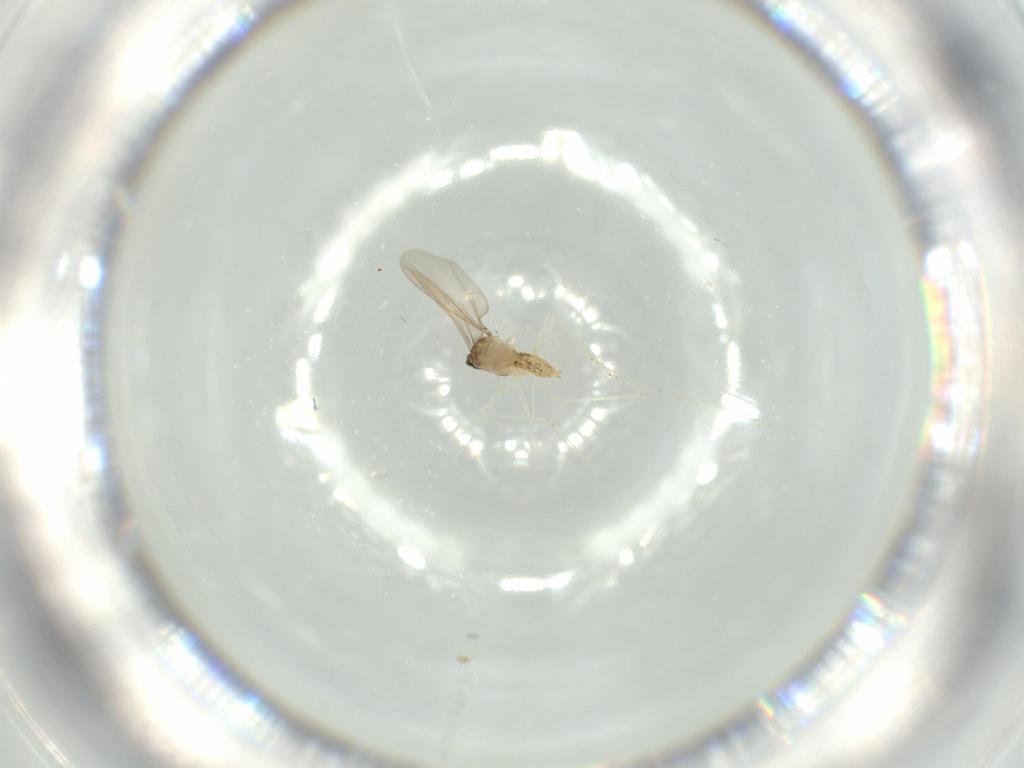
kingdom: Animalia
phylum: Arthropoda
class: Insecta
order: Diptera
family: Cecidomyiidae
